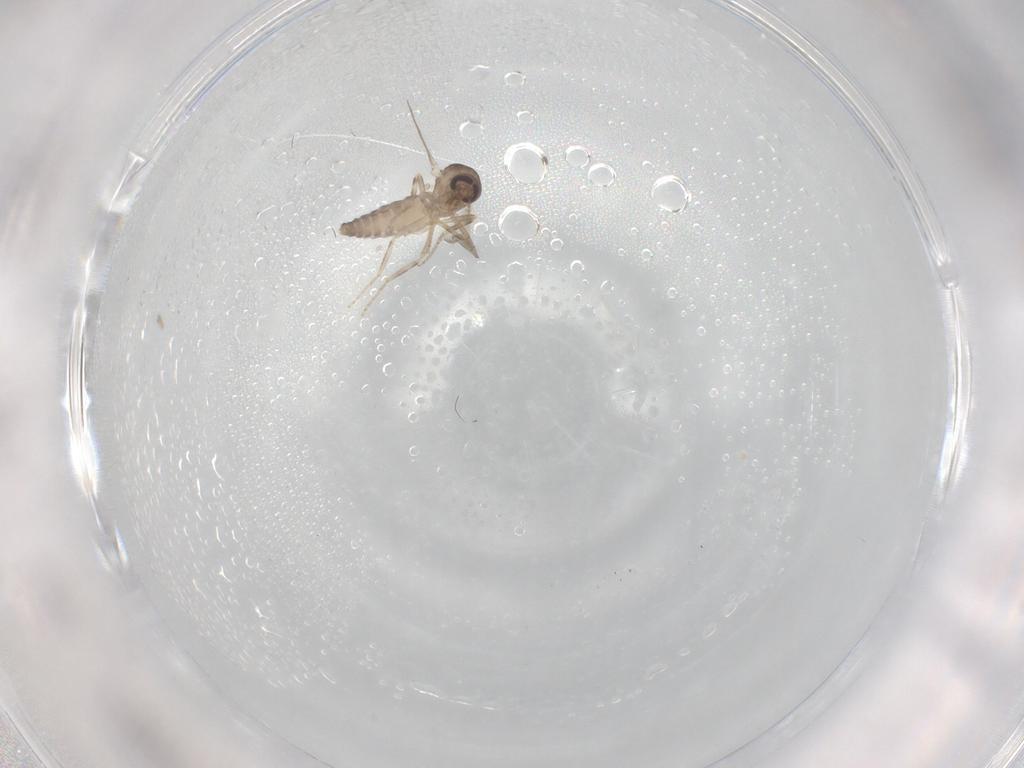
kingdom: Animalia
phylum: Arthropoda
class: Insecta
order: Diptera
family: Tabanidae
